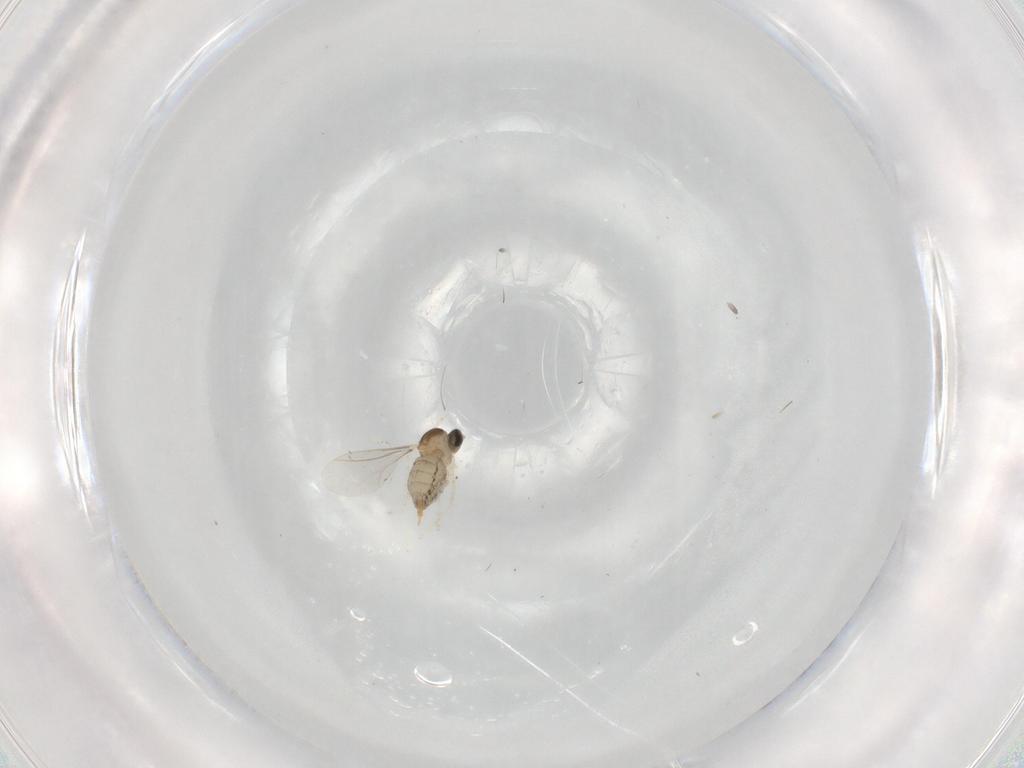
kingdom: Animalia
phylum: Arthropoda
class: Insecta
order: Diptera
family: Cecidomyiidae
